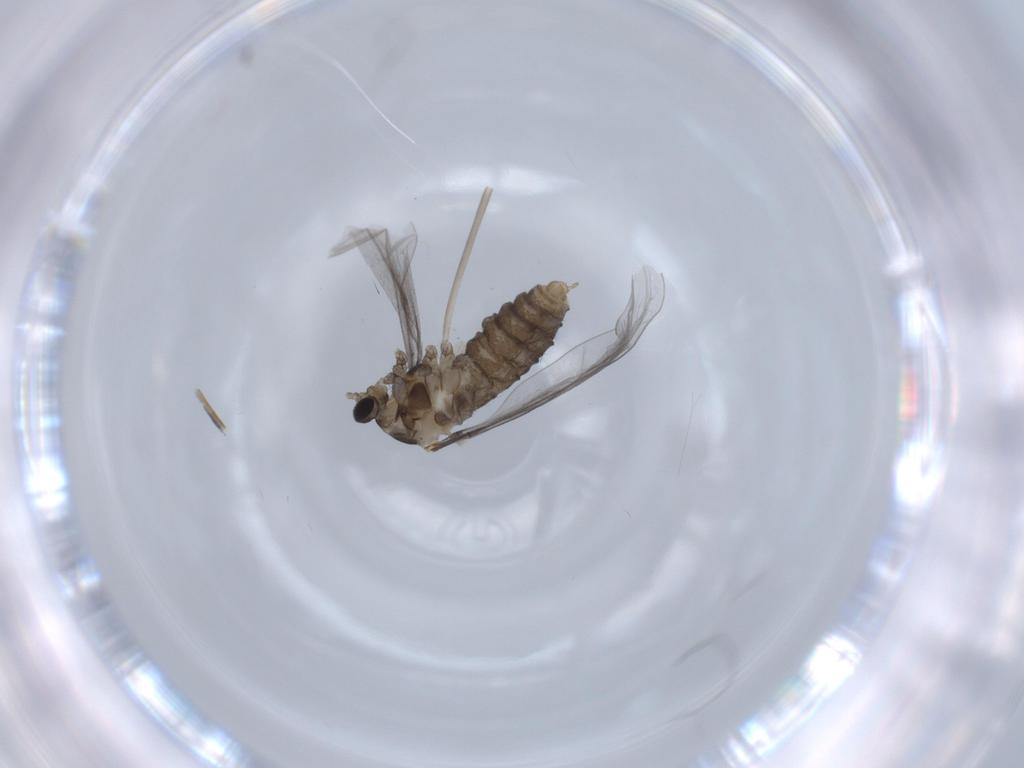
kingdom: Animalia
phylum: Arthropoda
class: Insecta
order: Diptera
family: Cecidomyiidae
